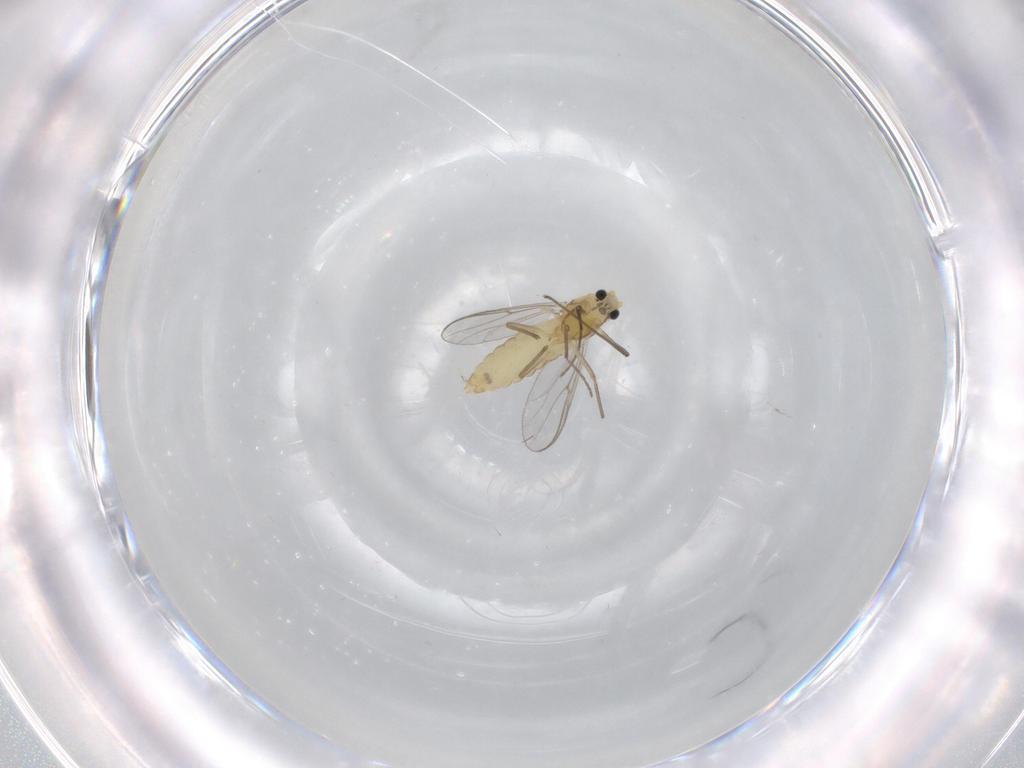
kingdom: Animalia
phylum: Arthropoda
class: Insecta
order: Diptera
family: Chironomidae
